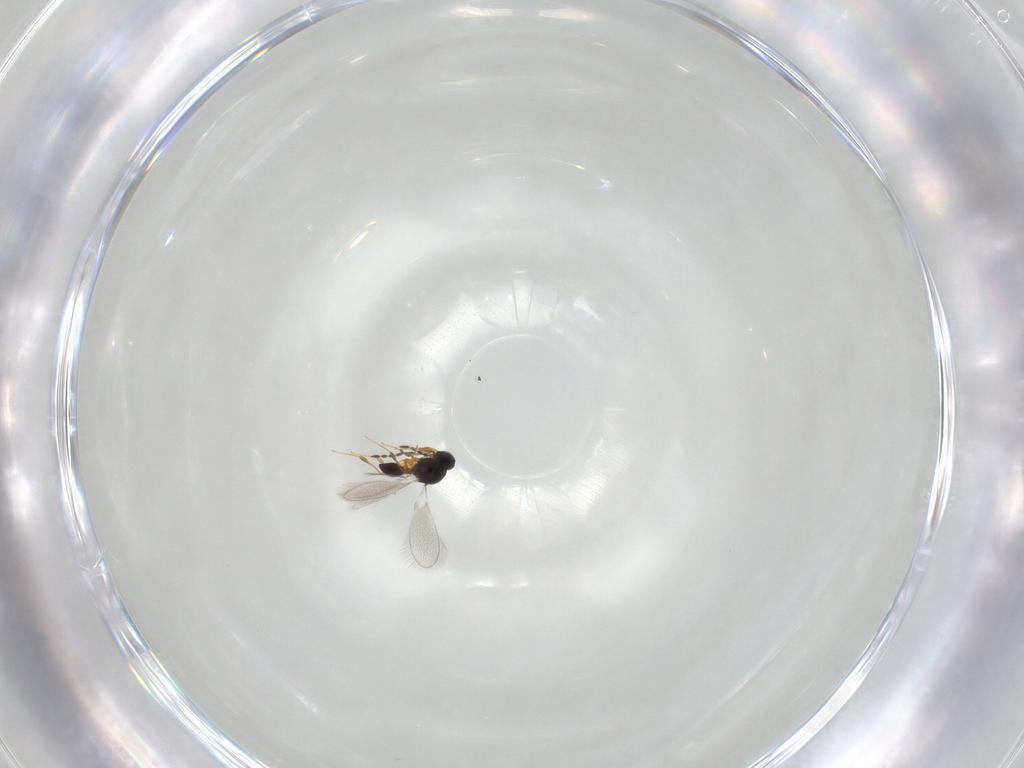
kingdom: Animalia
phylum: Arthropoda
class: Insecta
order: Hymenoptera
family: Platygastridae
